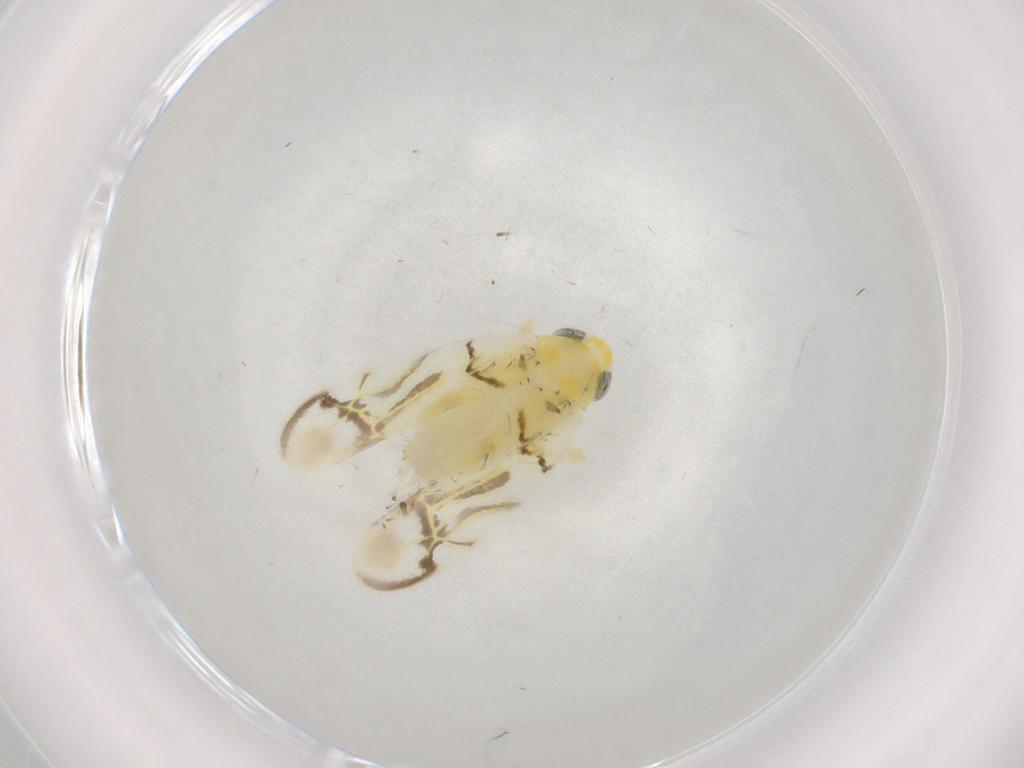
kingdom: Animalia
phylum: Arthropoda
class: Insecta
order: Hemiptera
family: Cicadellidae
